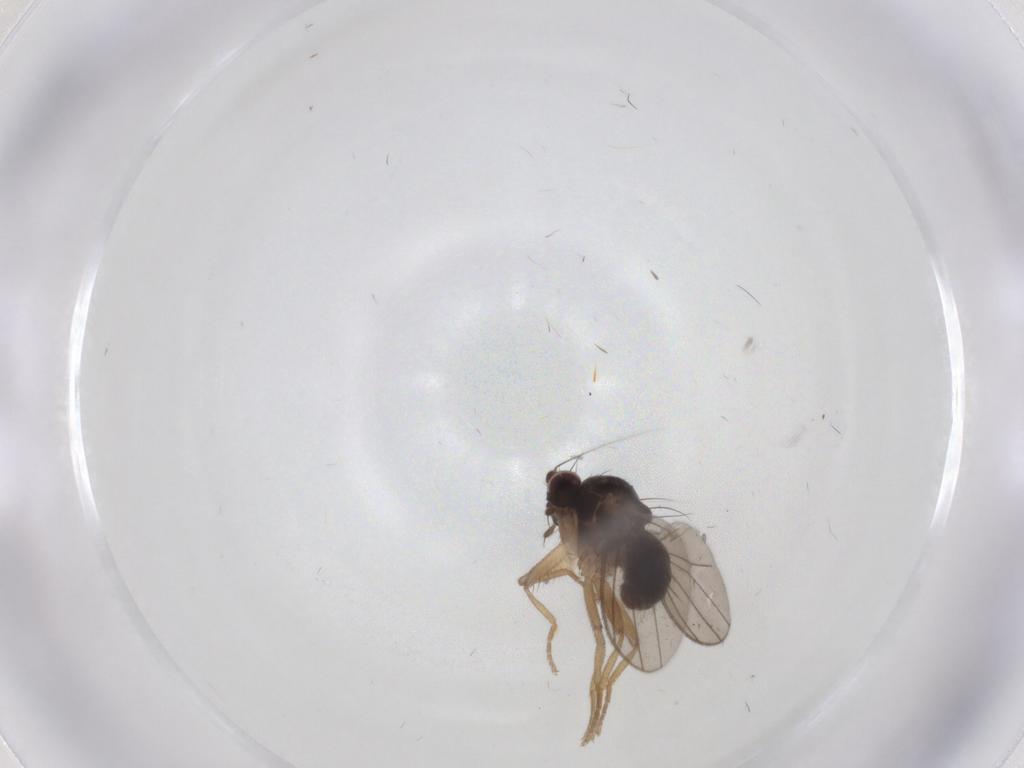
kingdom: Animalia
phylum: Arthropoda
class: Insecta
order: Diptera
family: Inbiomyiidae
